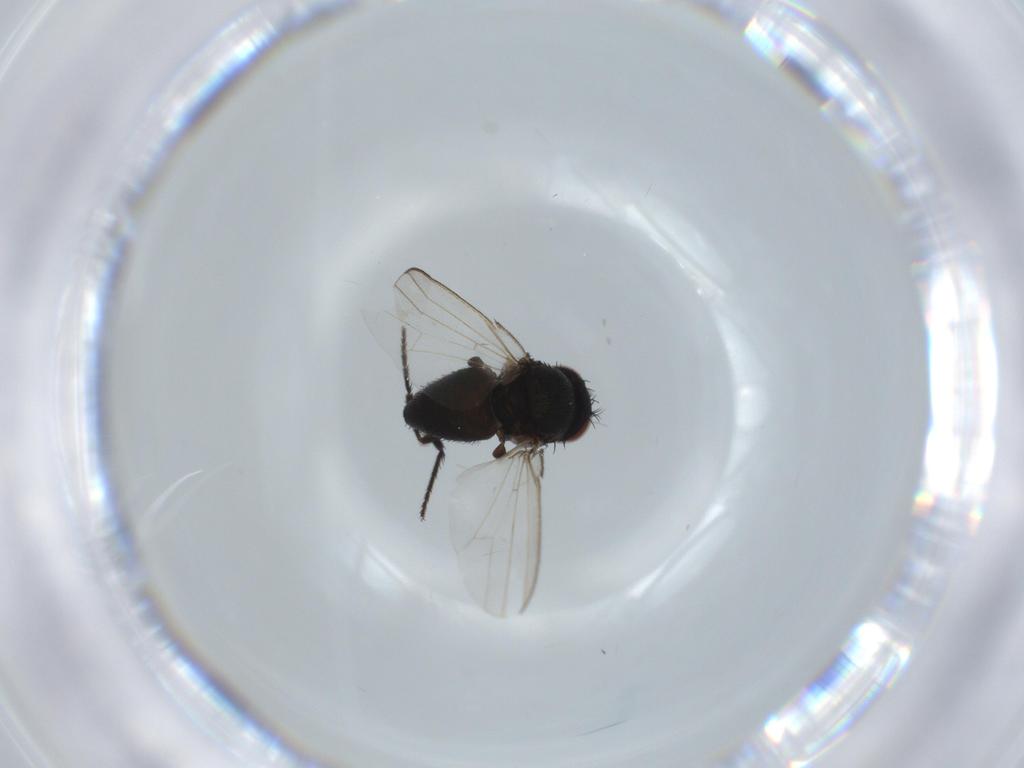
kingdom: Animalia
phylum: Arthropoda
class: Insecta
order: Diptera
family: Milichiidae
